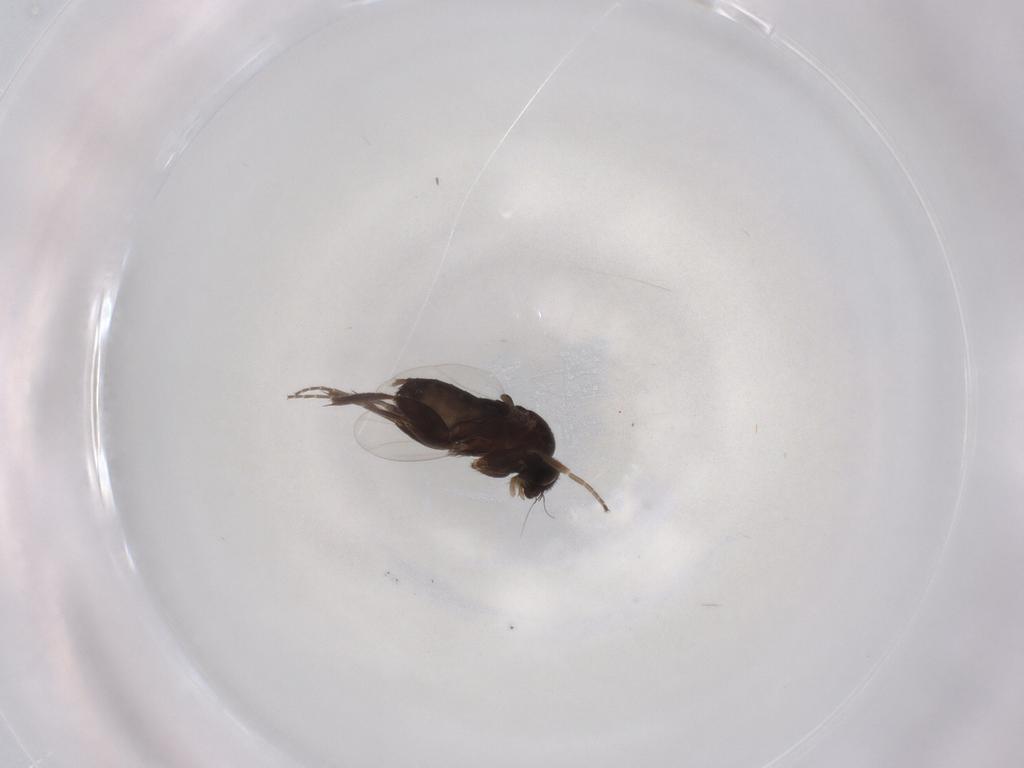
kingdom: Animalia
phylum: Arthropoda
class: Insecta
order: Diptera
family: Phoridae
